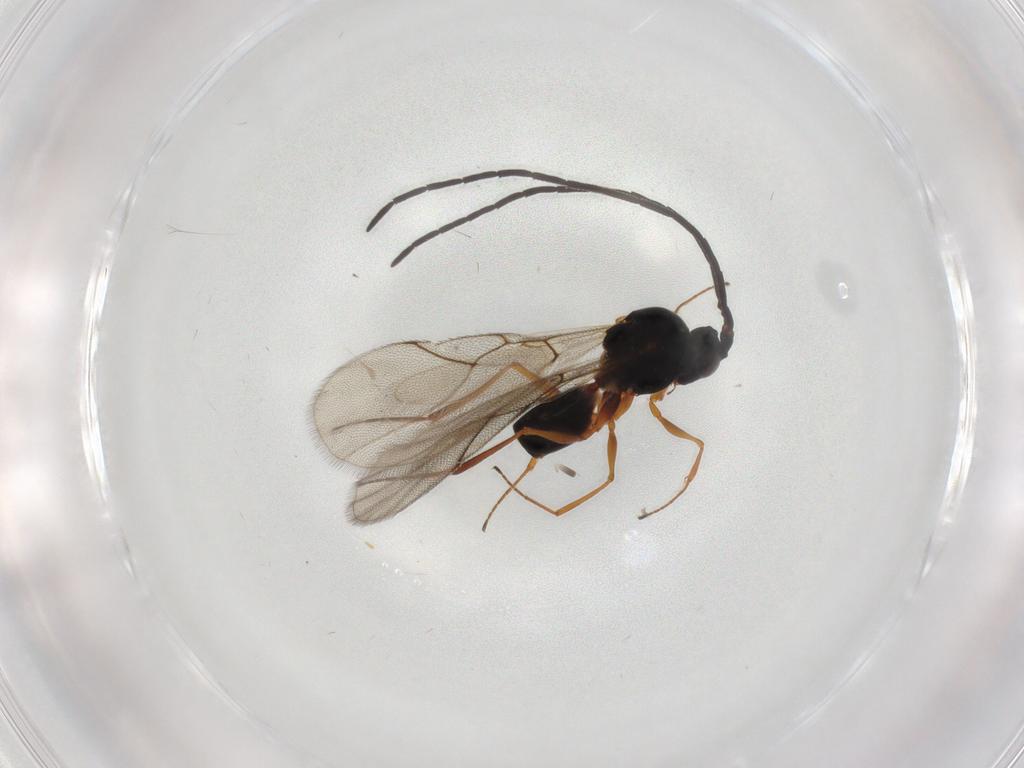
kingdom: Animalia
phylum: Arthropoda
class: Insecta
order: Hymenoptera
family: Figitidae
